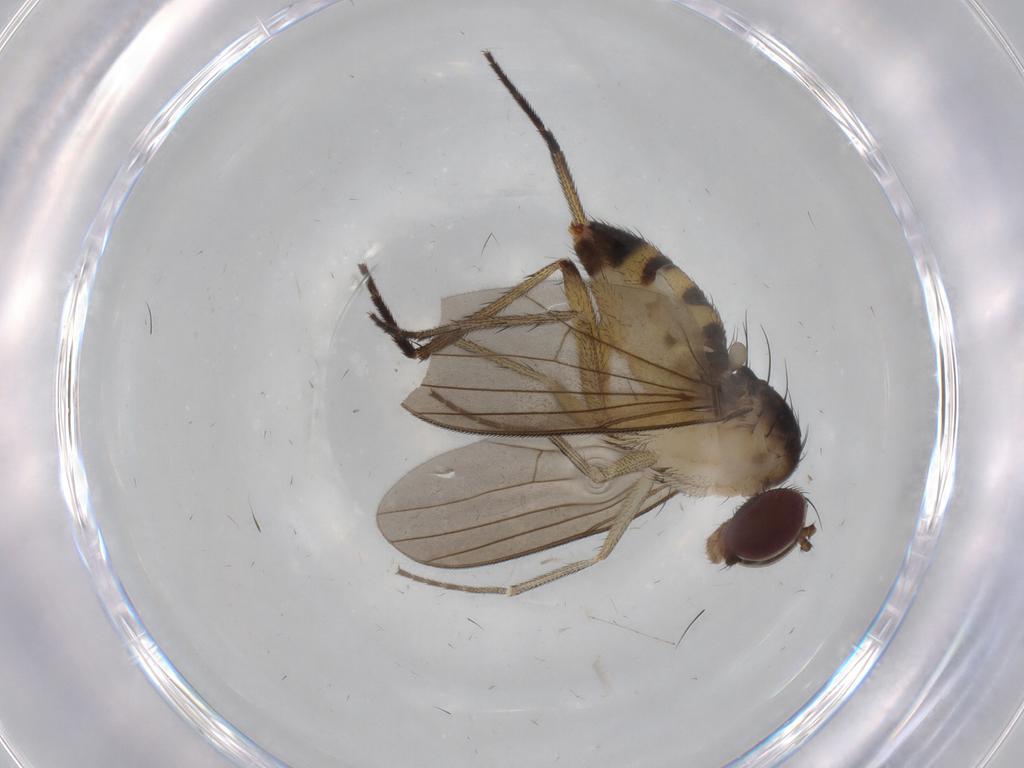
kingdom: Animalia
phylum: Arthropoda
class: Insecta
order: Diptera
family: Dolichopodidae
